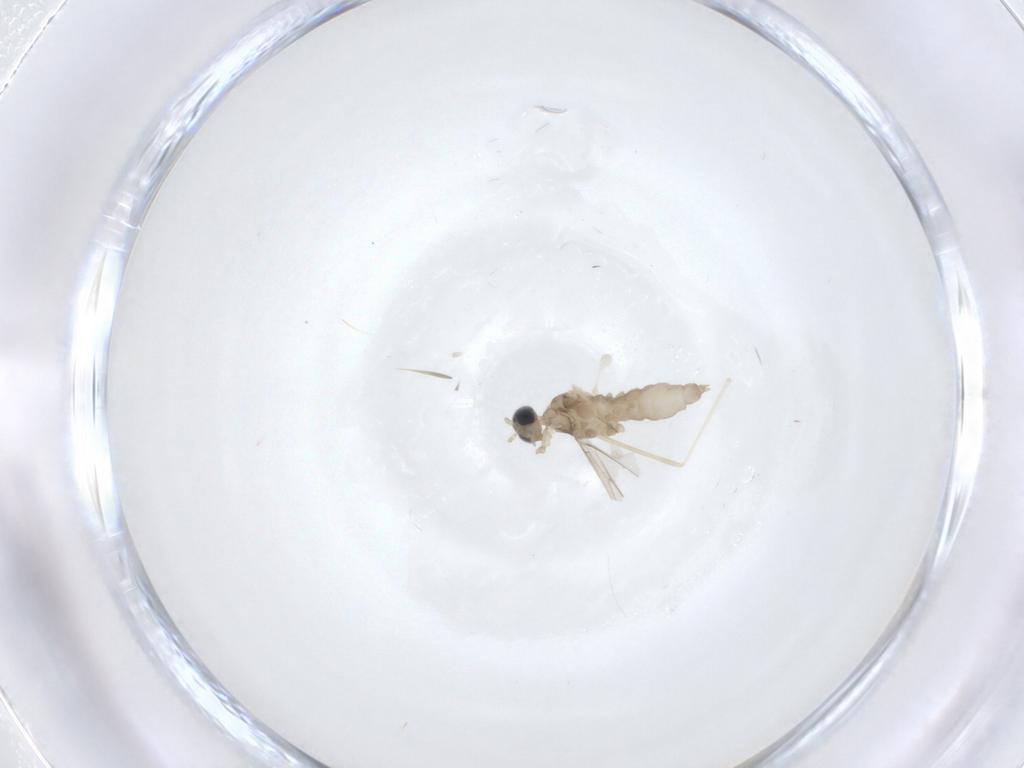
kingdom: Animalia
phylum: Arthropoda
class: Insecta
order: Diptera
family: Cecidomyiidae
